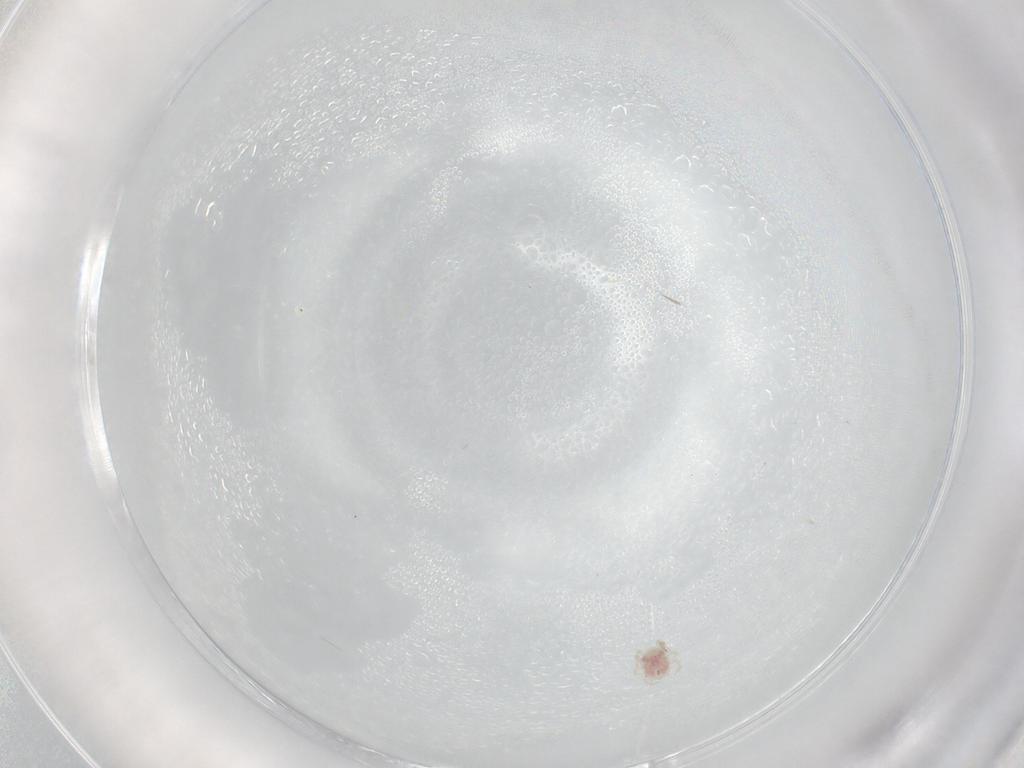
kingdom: Animalia
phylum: Arthropoda
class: Arachnida
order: Mesostigmata
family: Phytoseiidae
